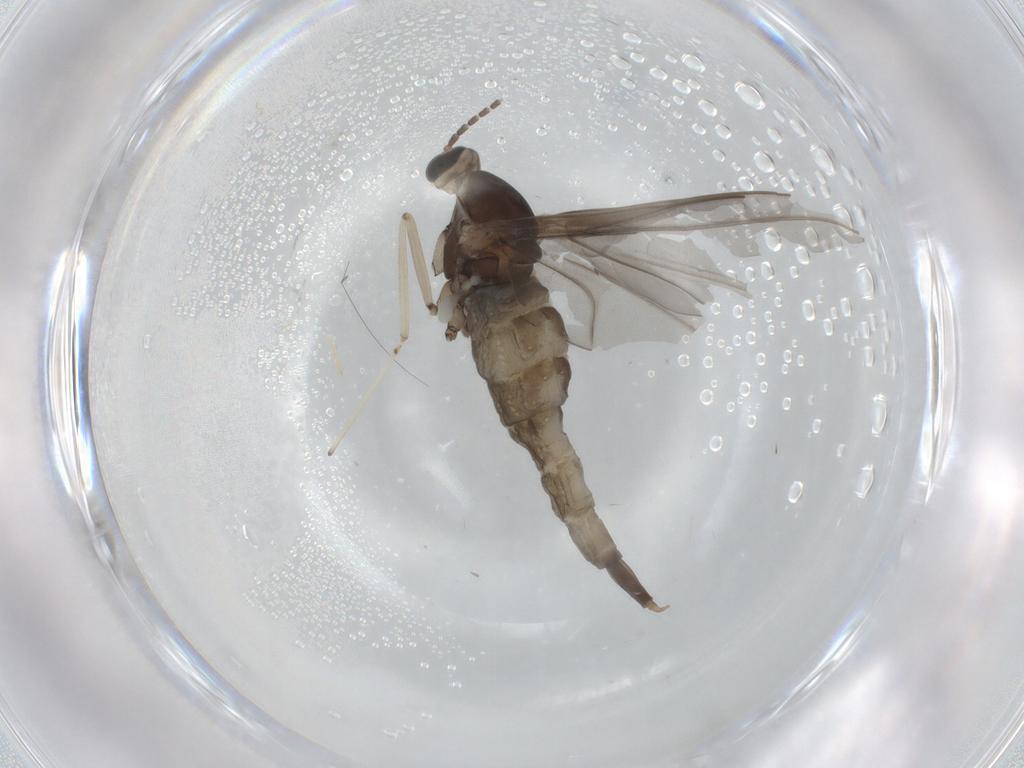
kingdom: Animalia
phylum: Arthropoda
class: Insecta
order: Diptera
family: Cecidomyiidae
